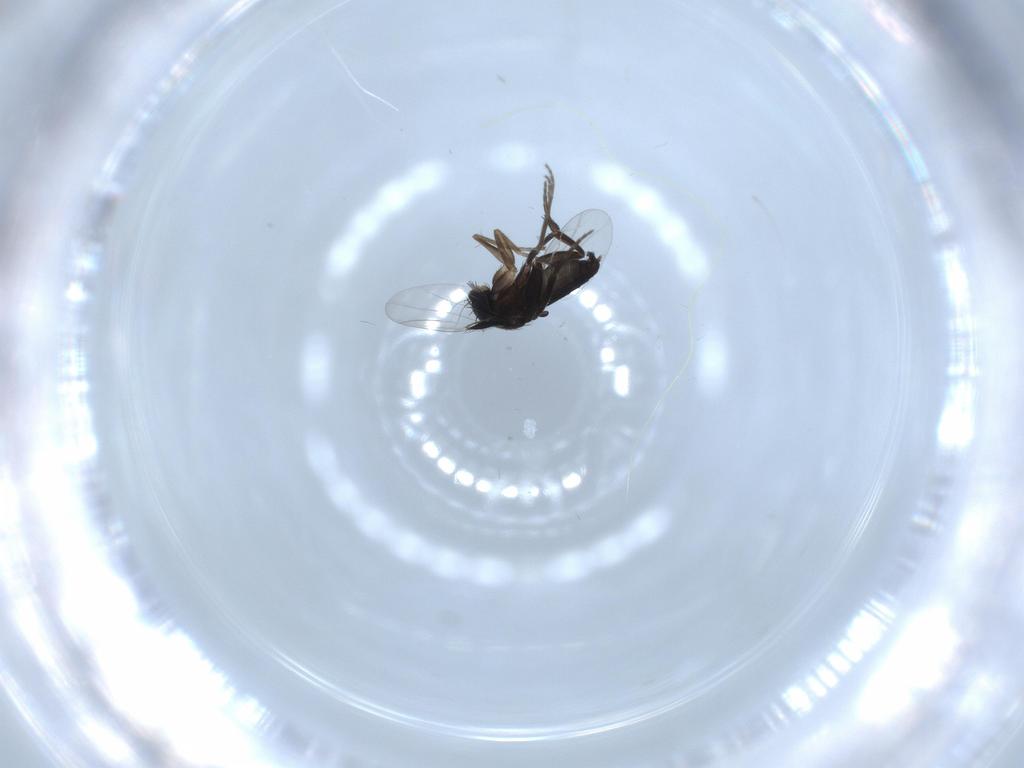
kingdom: Animalia
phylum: Arthropoda
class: Insecta
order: Diptera
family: Phoridae
